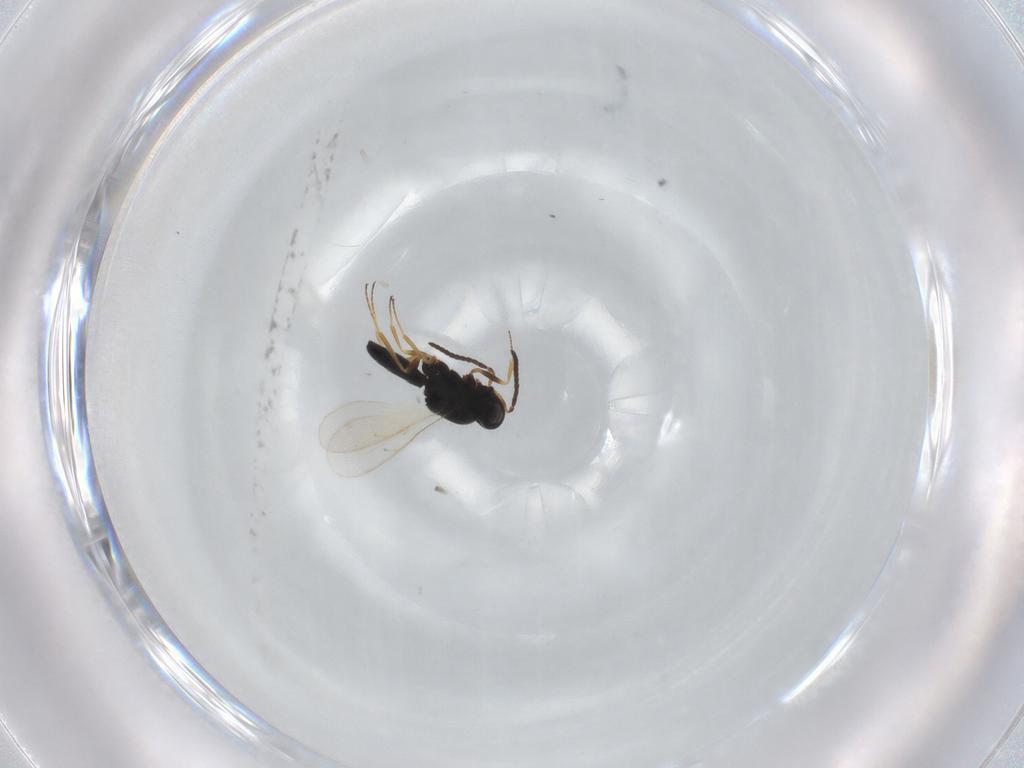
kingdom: Animalia
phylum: Arthropoda
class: Insecta
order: Hymenoptera
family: Scelionidae
